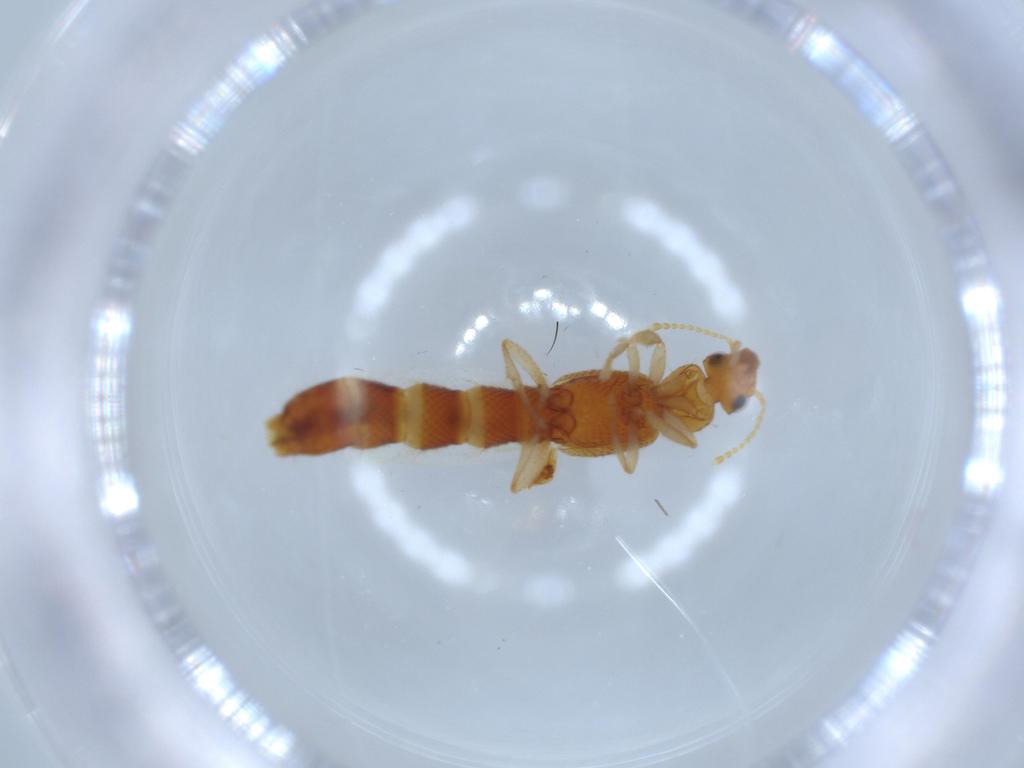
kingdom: Animalia
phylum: Arthropoda
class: Insecta
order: Coleoptera
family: Staphylinidae
